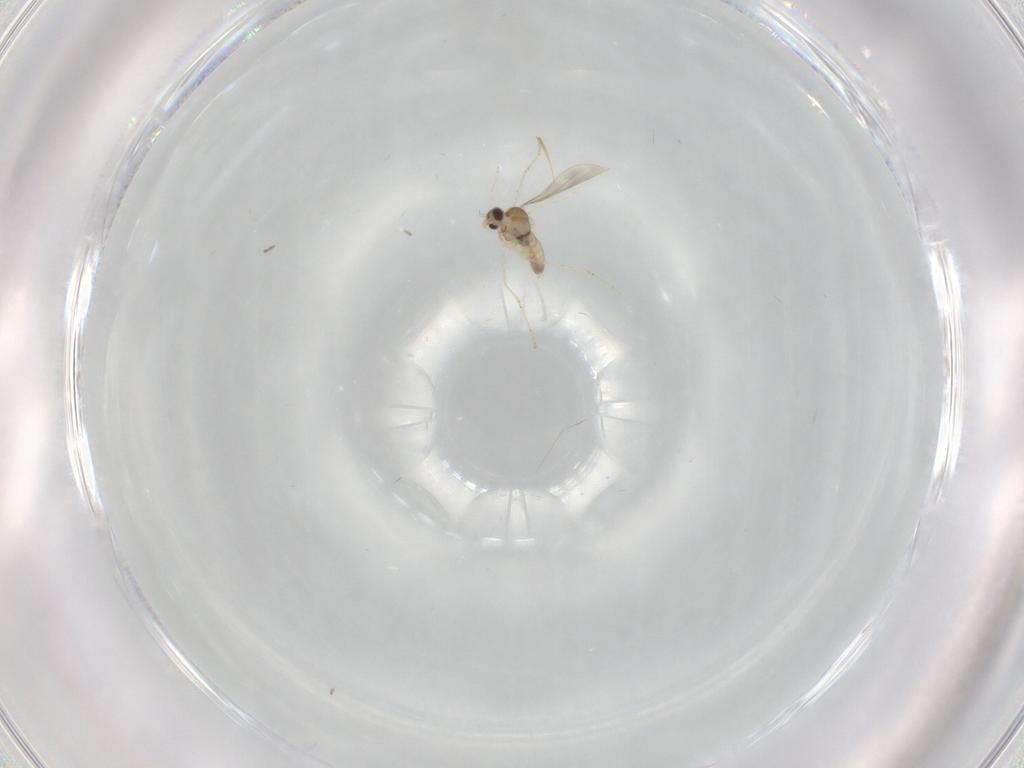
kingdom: Animalia
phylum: Arthropoda
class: Insecta
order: Diptera
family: Cecidomyiidae
